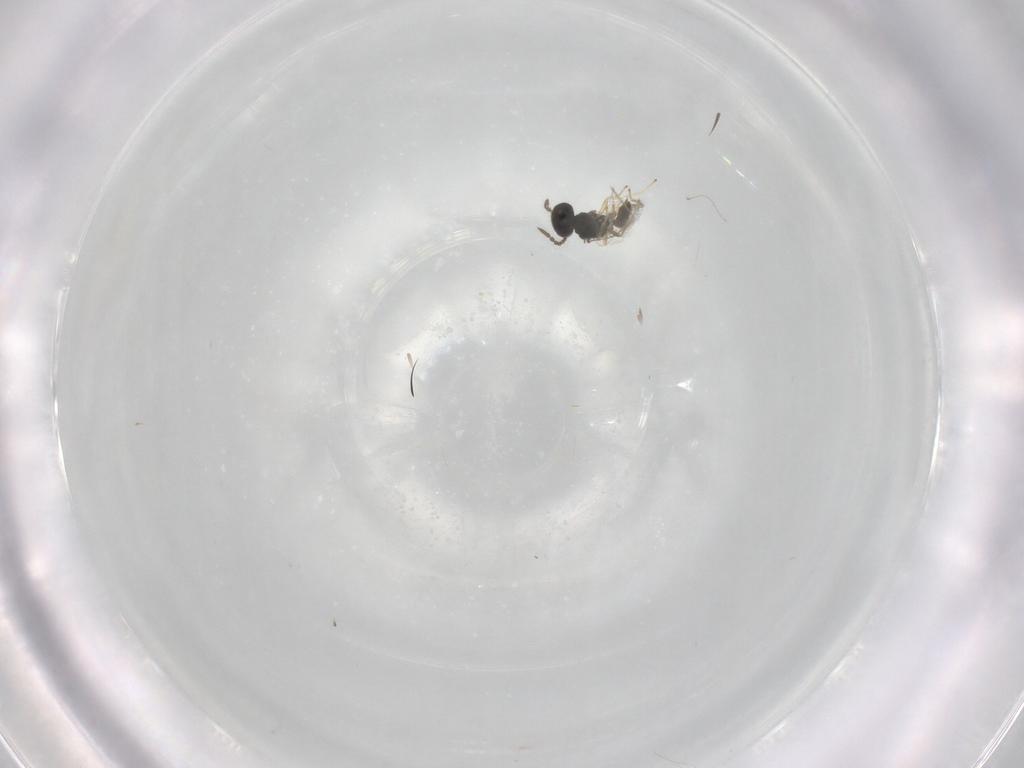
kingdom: Animalia
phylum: Arthropoda
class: Insecta
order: Hymenoptera
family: Pteromalidae
